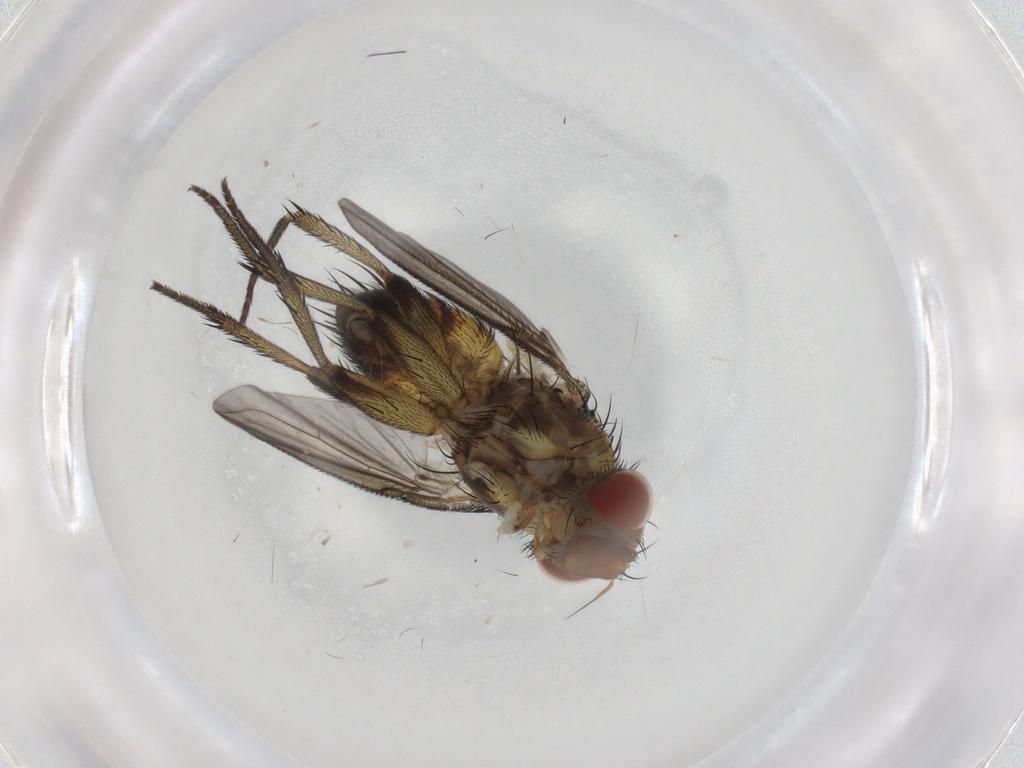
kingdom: Animalia
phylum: Arthropoda
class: Insecta
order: Diptera
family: Tachinidae
